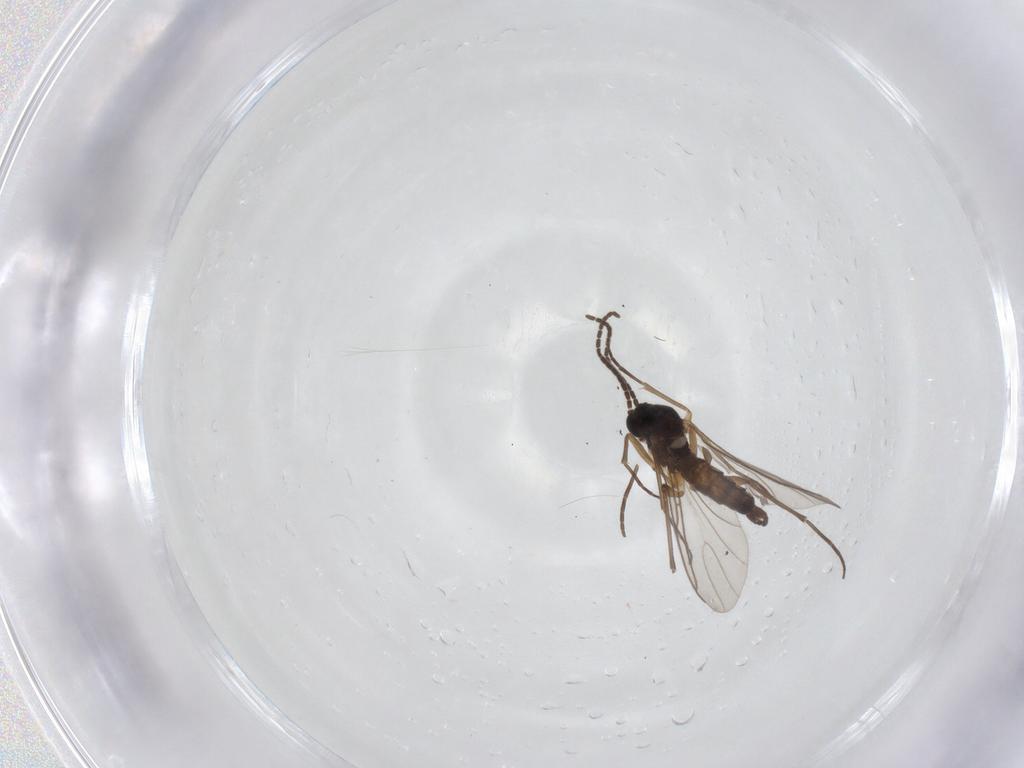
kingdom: Animalia
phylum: Arthropoda
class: Insecta
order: Diptera
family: Sciaridae
